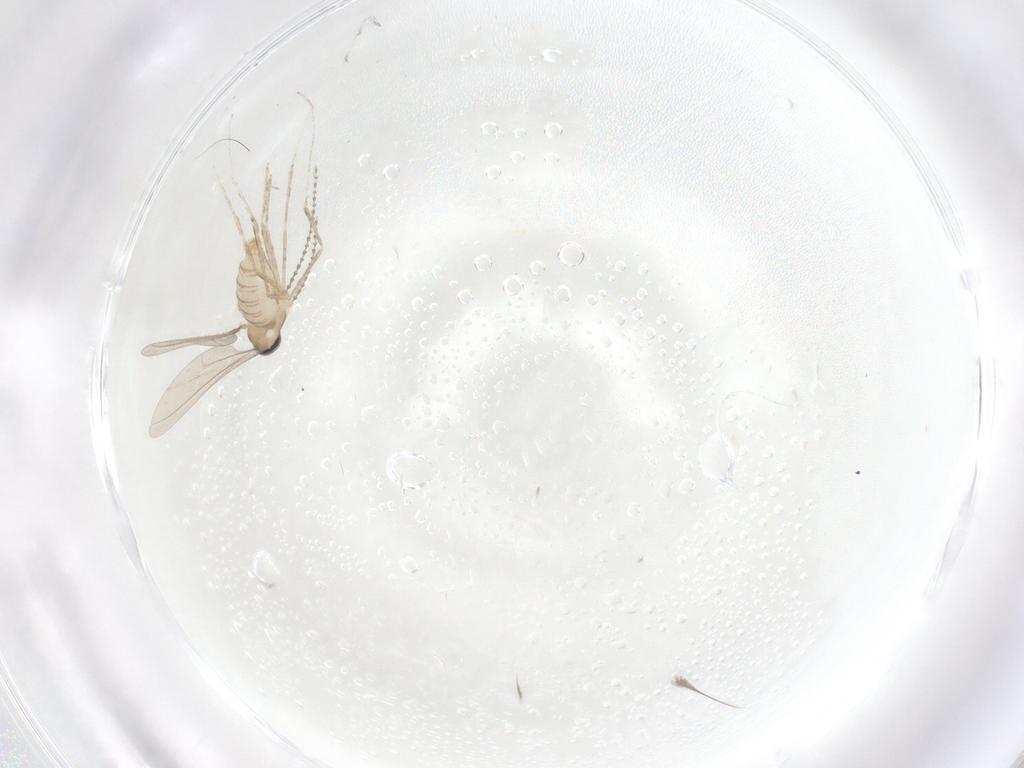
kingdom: Animalia
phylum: Arthropoda
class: Insecta
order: Diptera
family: Cecidomyiidae
